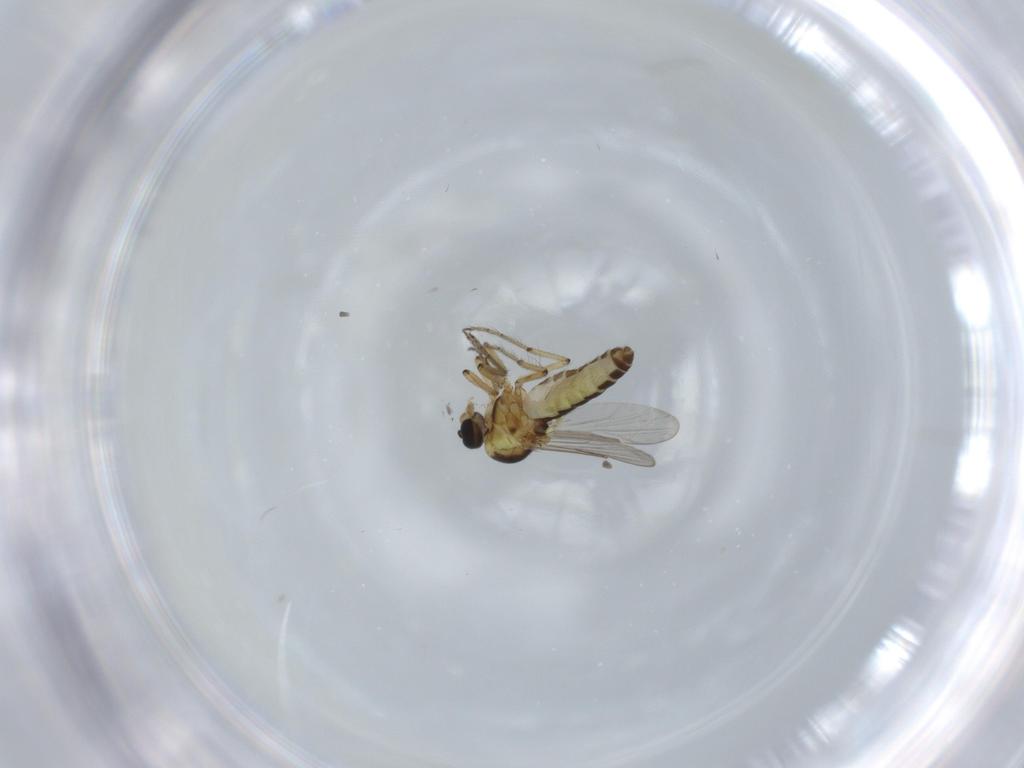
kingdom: Animalia
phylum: Arthropoda
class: Insecta
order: Diptera
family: Ceratopogonidae
